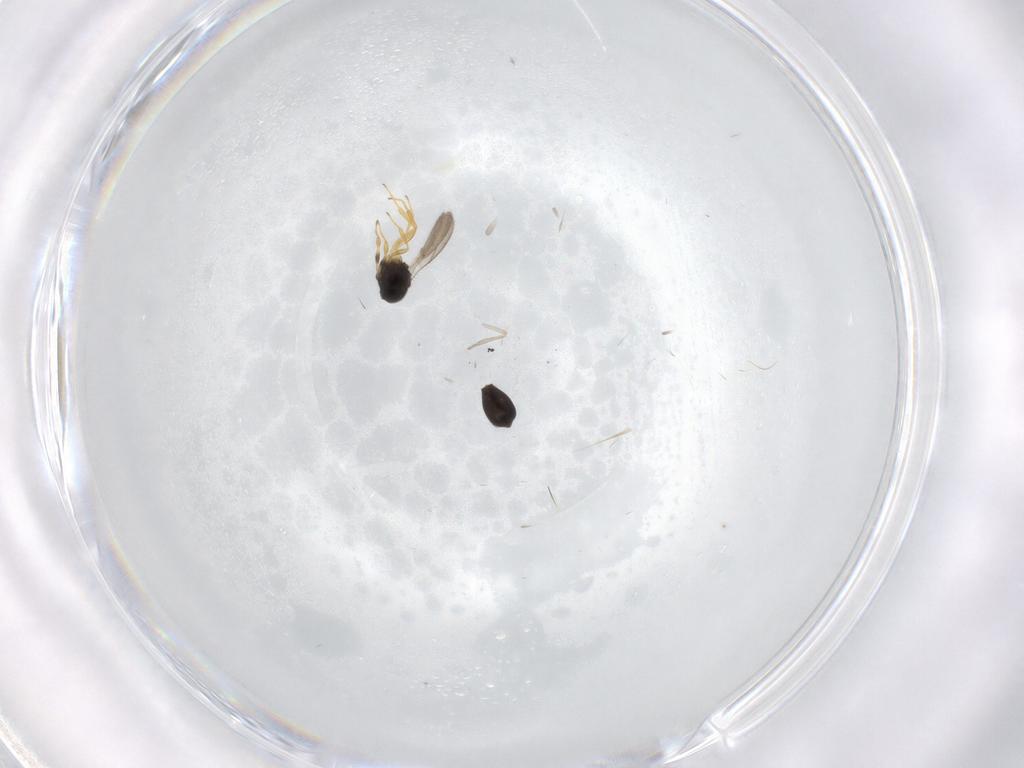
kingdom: Animalia
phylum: Arthropoda
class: Insecta
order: Hymenoptera
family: Scelionidae
